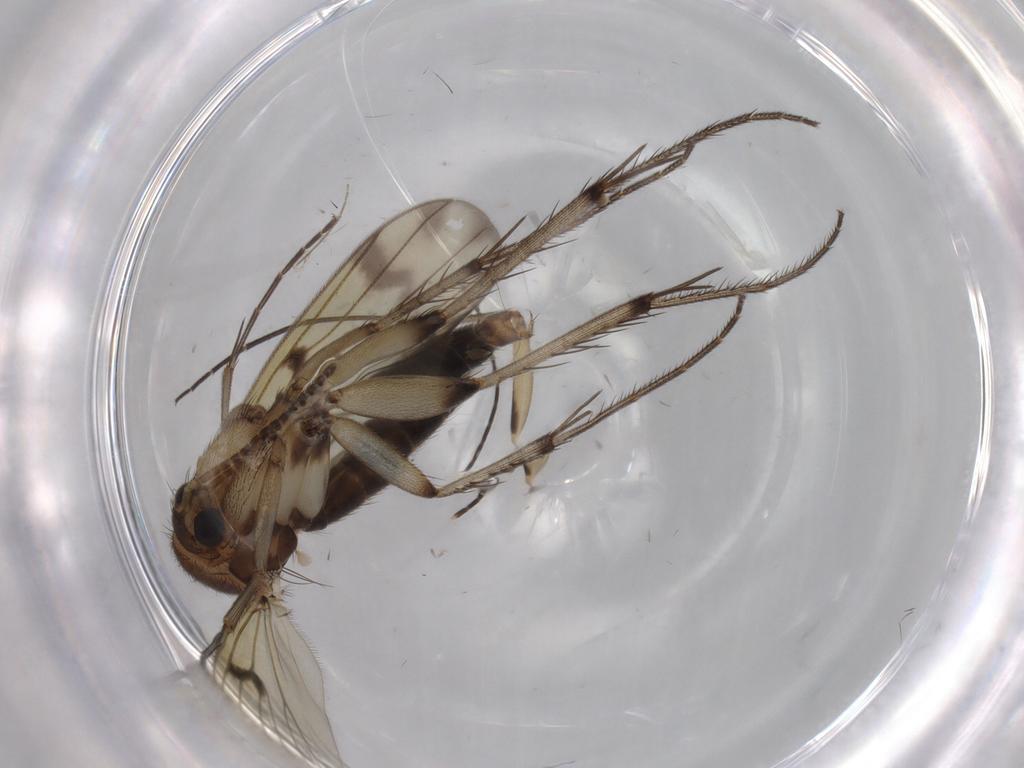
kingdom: Animalia
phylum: Arthropoda
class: Insecta
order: Diptera
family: Sciaridae
